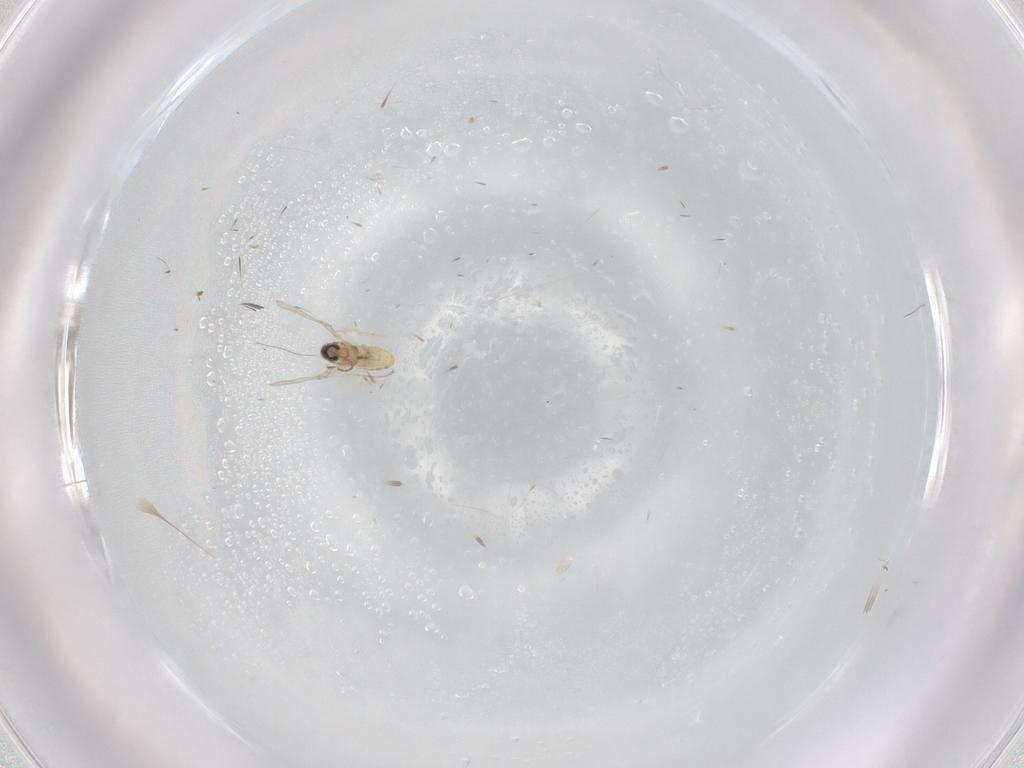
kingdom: Animalia
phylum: Arthropoda
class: Insecta
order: Diptera
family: Cecidomyiidae
